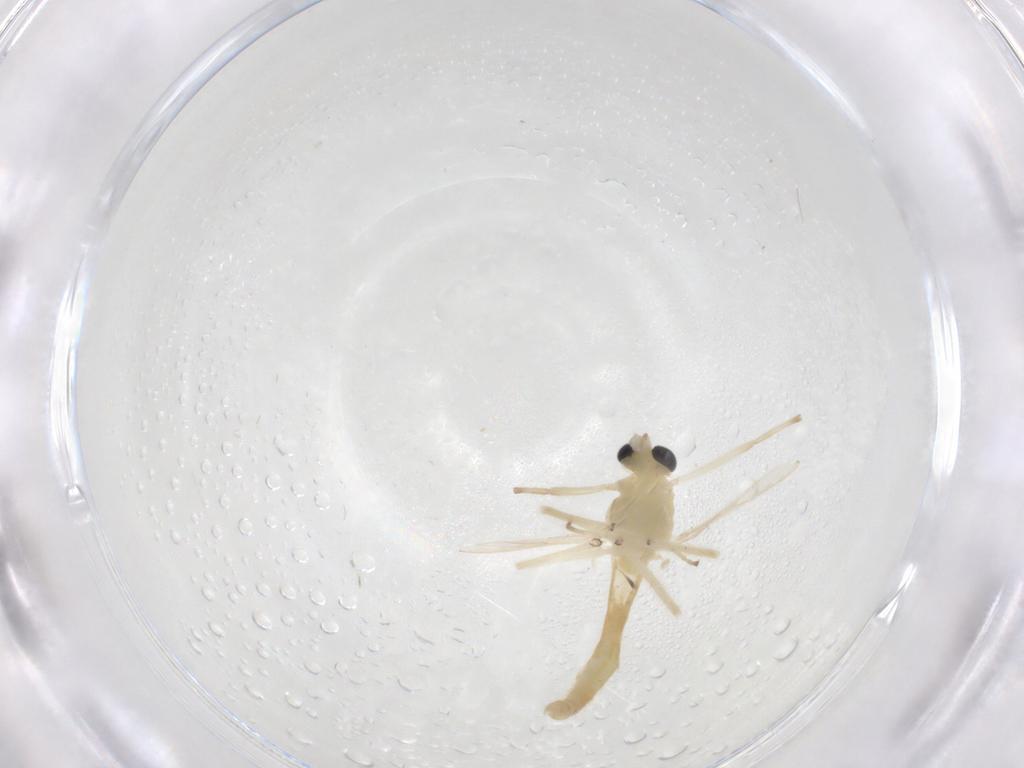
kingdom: Animalia
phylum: Arthropoda
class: Insecta
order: Diptera
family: Chironomidae
